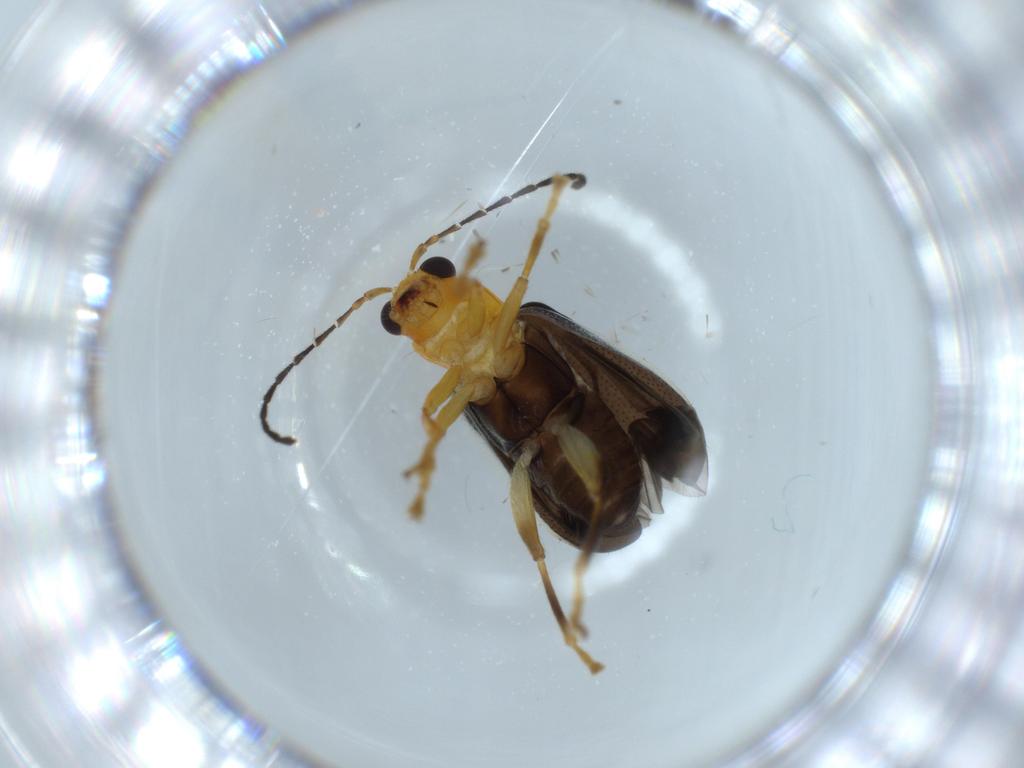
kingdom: Animalia
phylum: Arthropoda
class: Insecta
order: Coleoptera
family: Chrysomelidae
